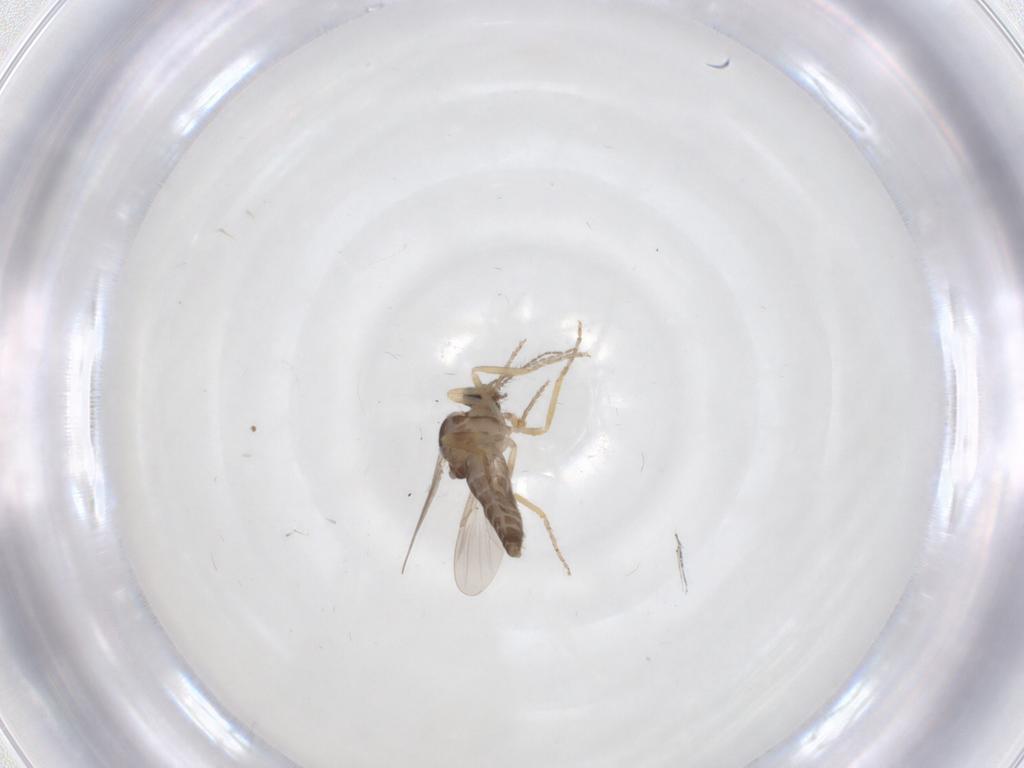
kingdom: Animalia
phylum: Arthropoda
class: Insecta
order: Diptera
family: Ceratopogonidae
